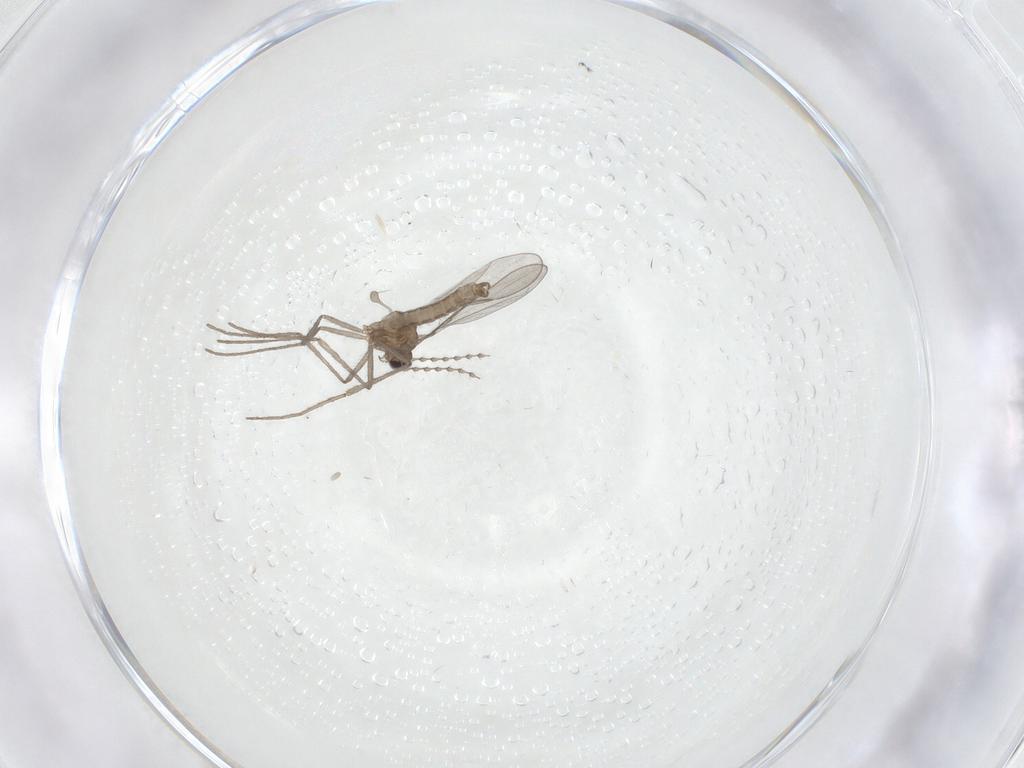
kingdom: Animalia
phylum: Arthropoda
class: Insecta
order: Diptera
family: Cecidomyiidae
